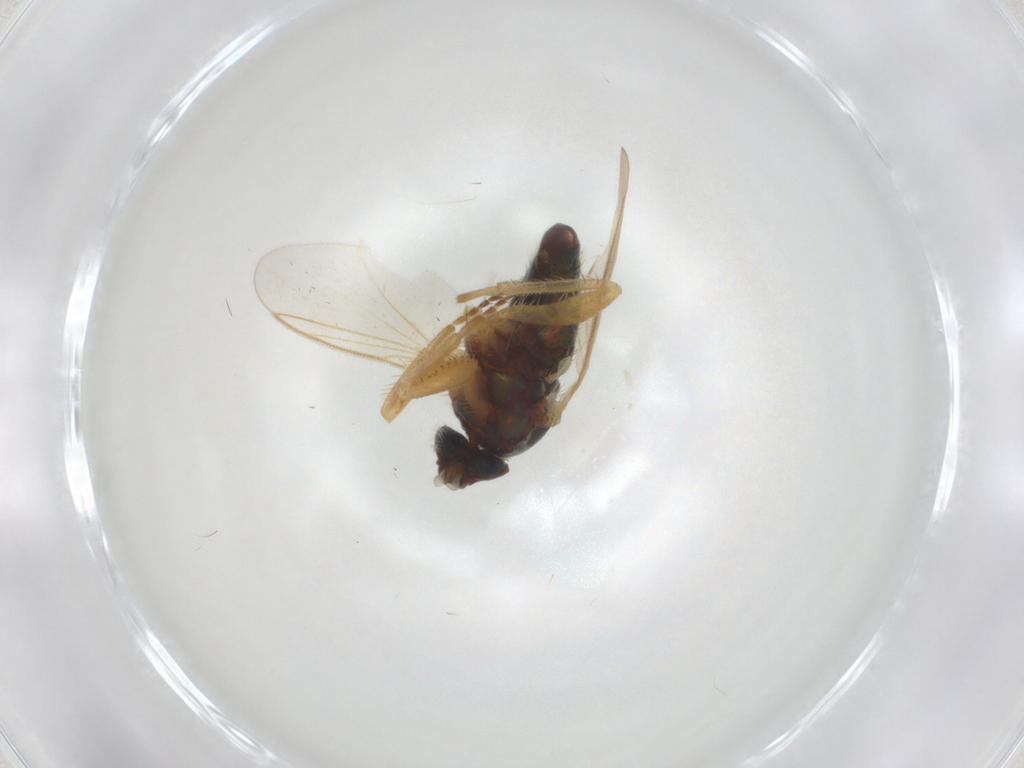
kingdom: Animalia
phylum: Arthropoda
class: Insecta
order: Diptera
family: Dolichopodidae
